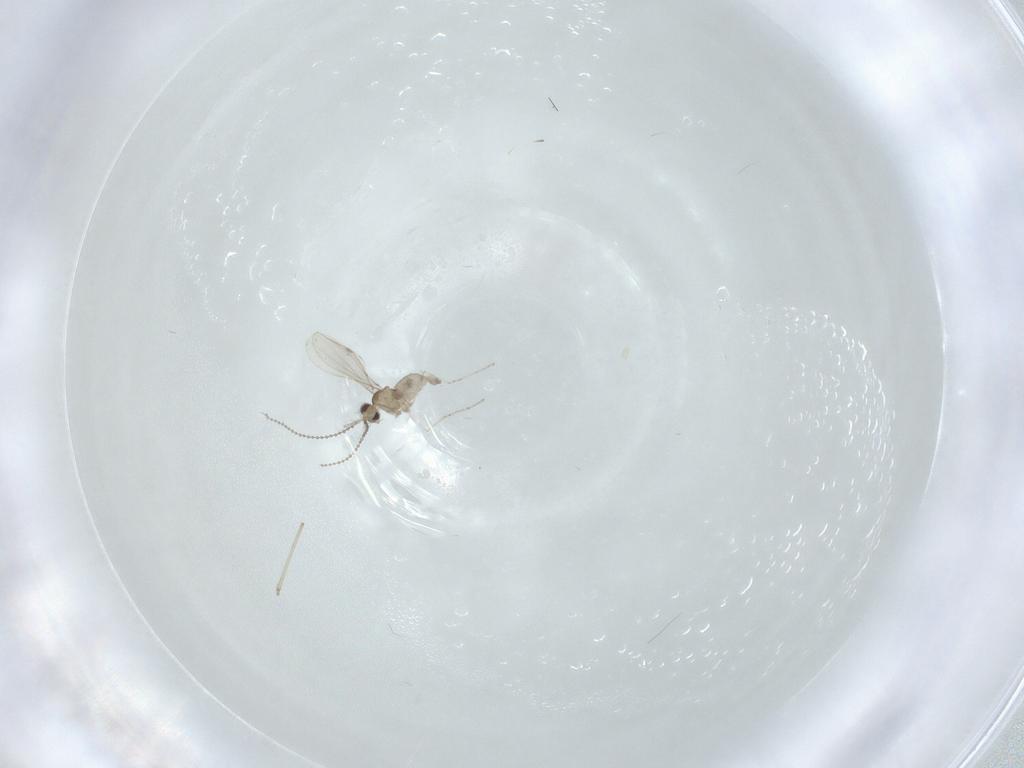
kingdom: Animalia
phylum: Arthropoda
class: Insecta
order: Diptera
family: Cecidomyiidae
